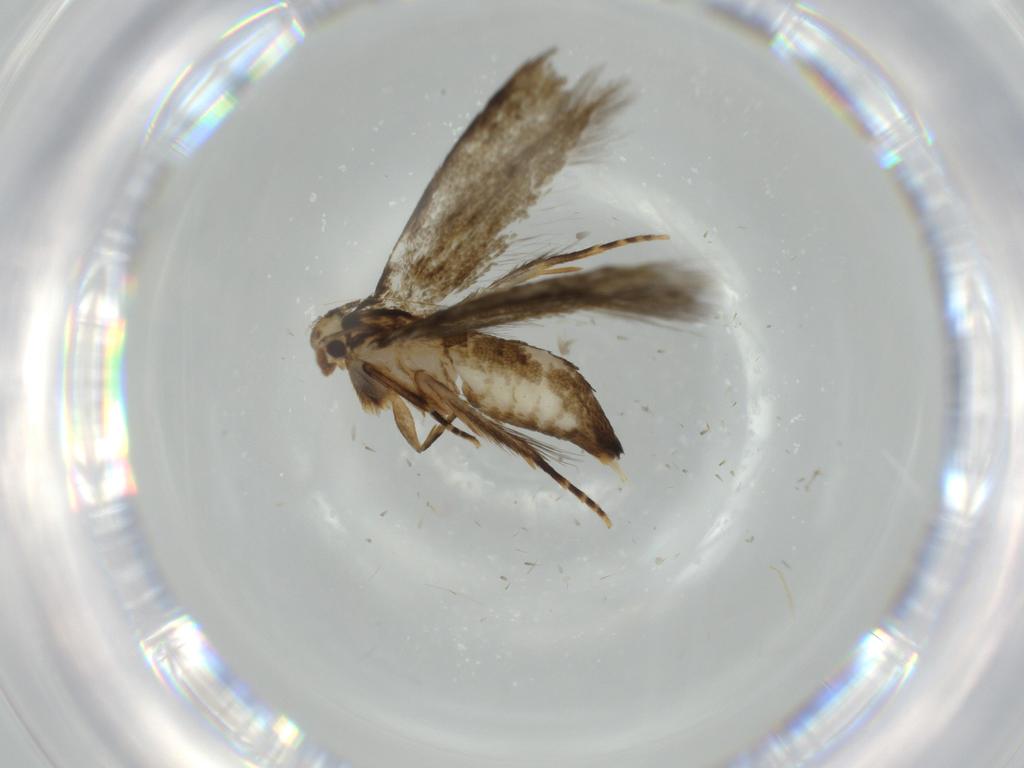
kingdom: Animalia
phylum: Arthropoda
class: Insecta
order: Lepidoptera
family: Tineidae
